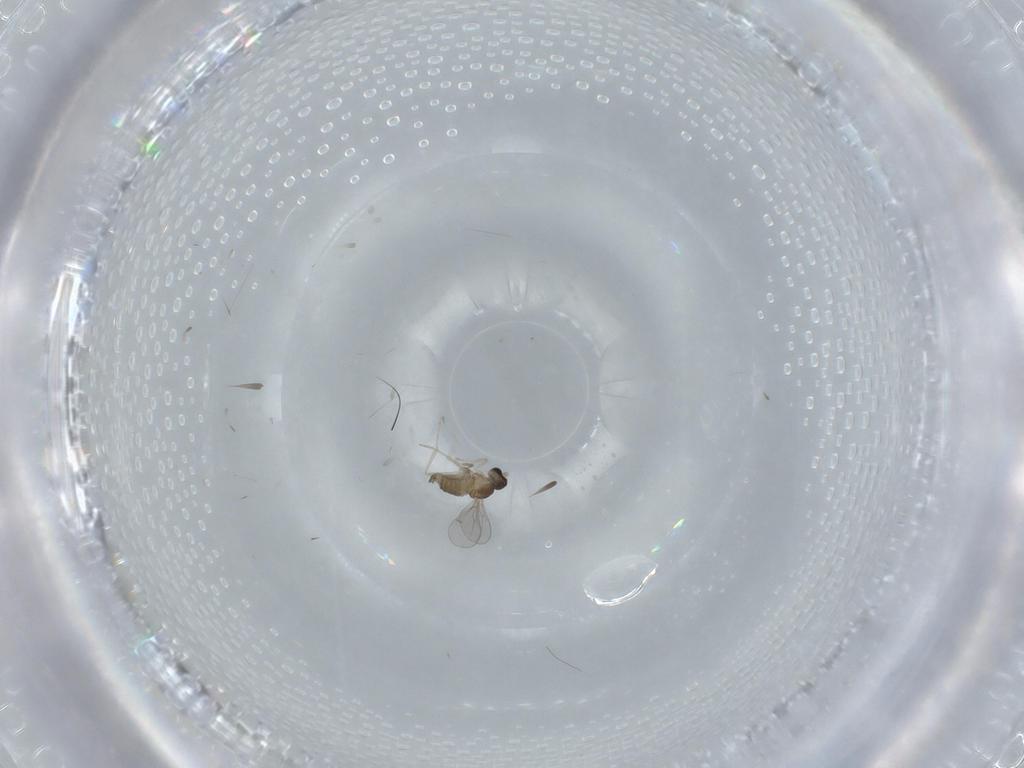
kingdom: Animalia
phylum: Arthropoda
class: Insecta
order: Diptera
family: Cecidomyiidae
